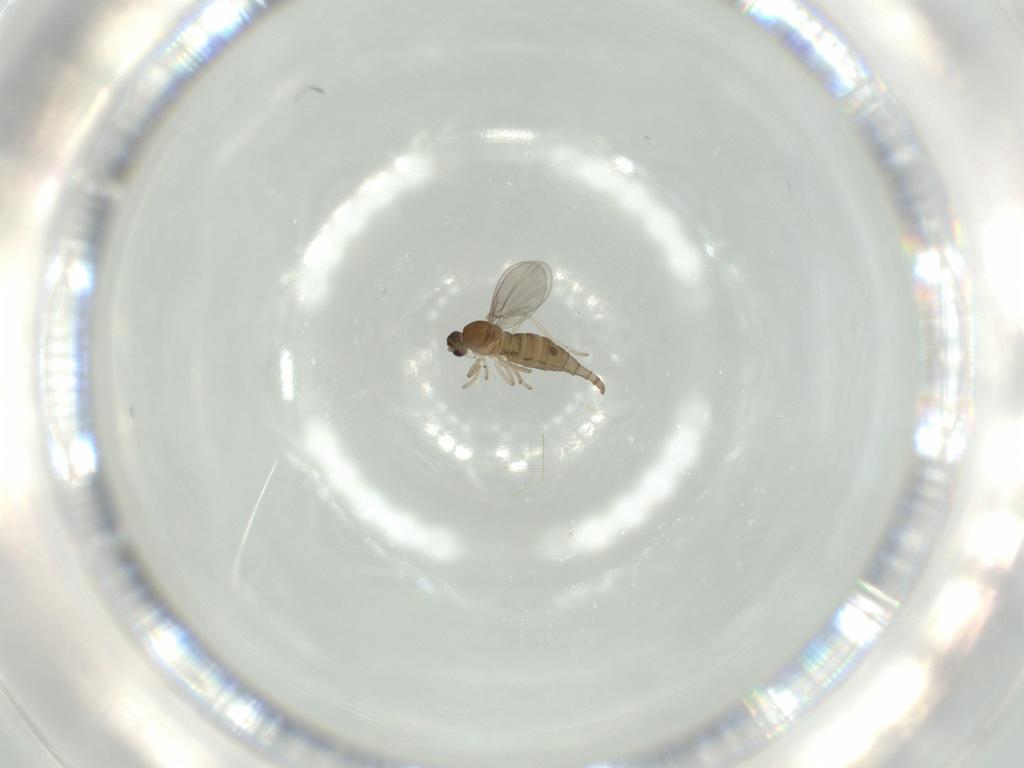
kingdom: Animalia
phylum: Arthropoda
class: Insecta
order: Diptera
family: Cecidomyiidae
